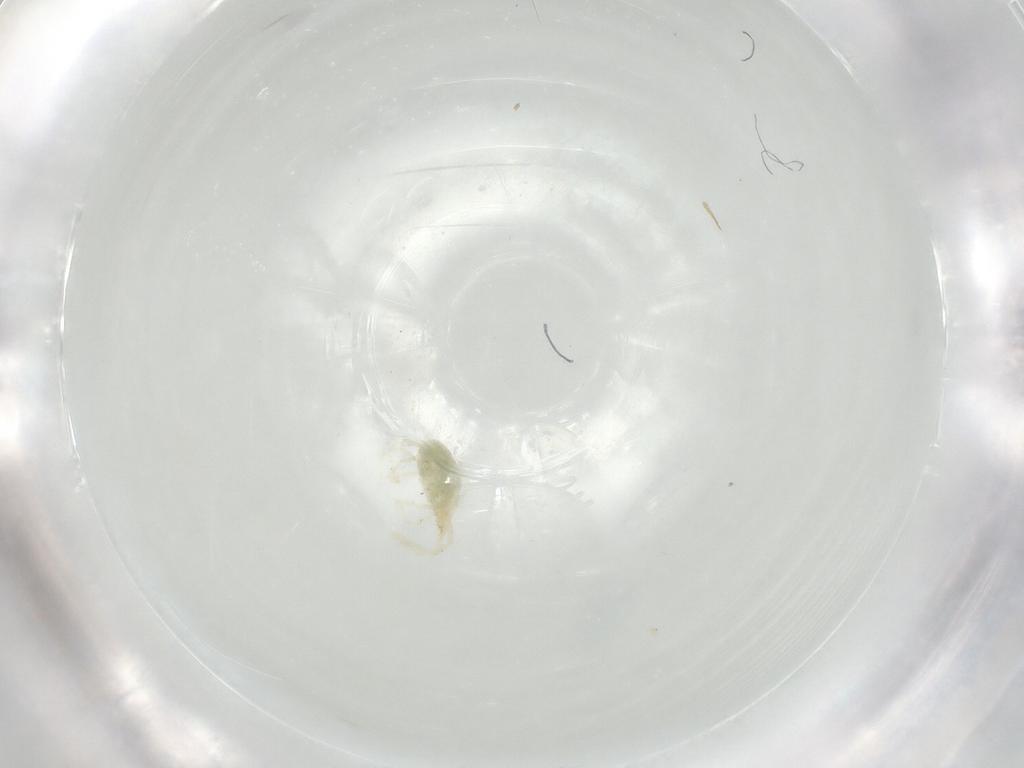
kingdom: Animalia
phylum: Arthropoda
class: Arachnida
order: Trombidiformes
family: Erythraeidae
